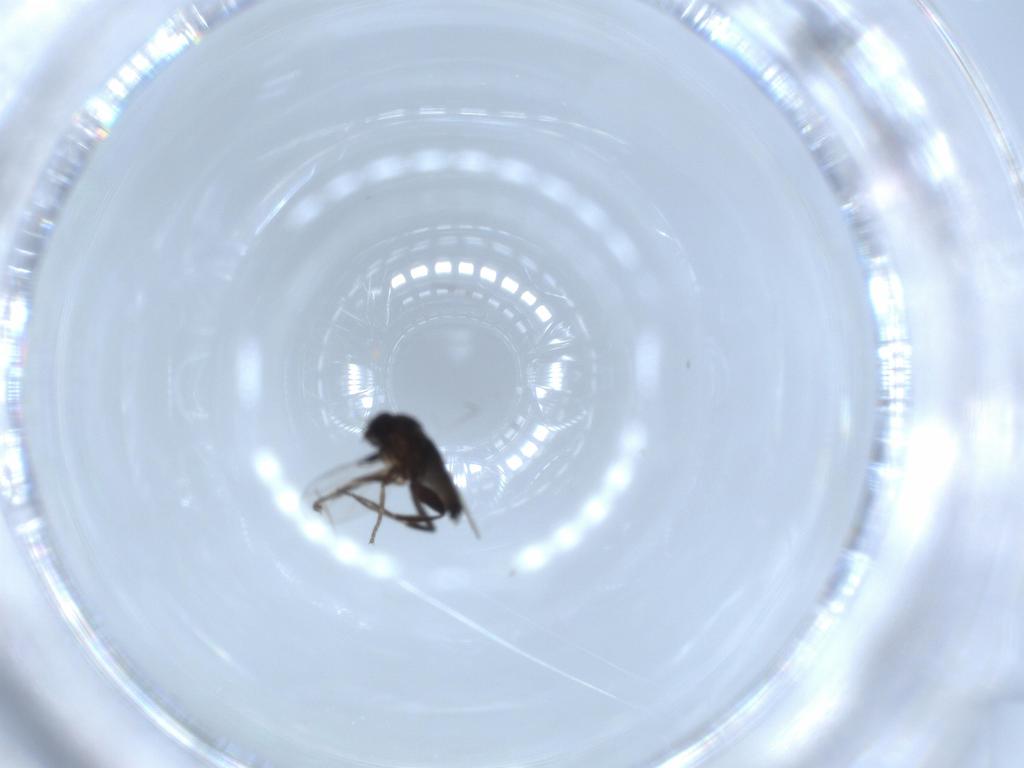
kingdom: Animalia
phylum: Arthropoda
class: Insecta
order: Diptera
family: Phoridae
